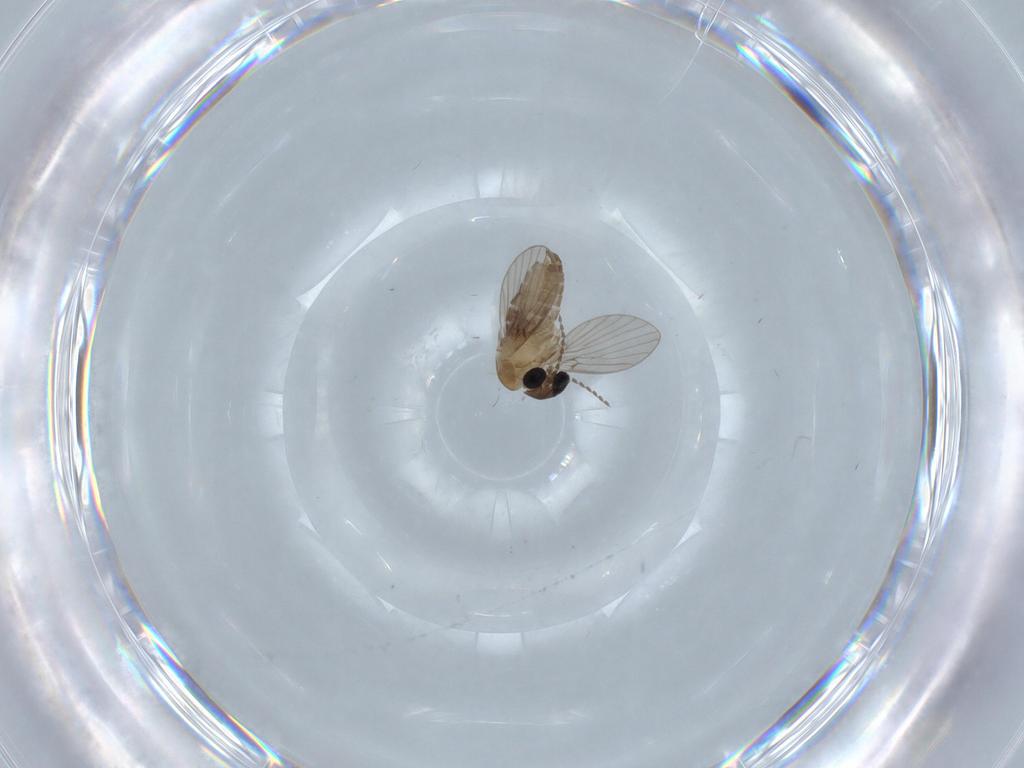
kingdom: Animalia
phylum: Arthropoda
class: Insecta
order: Diptera
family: Psychodidae
